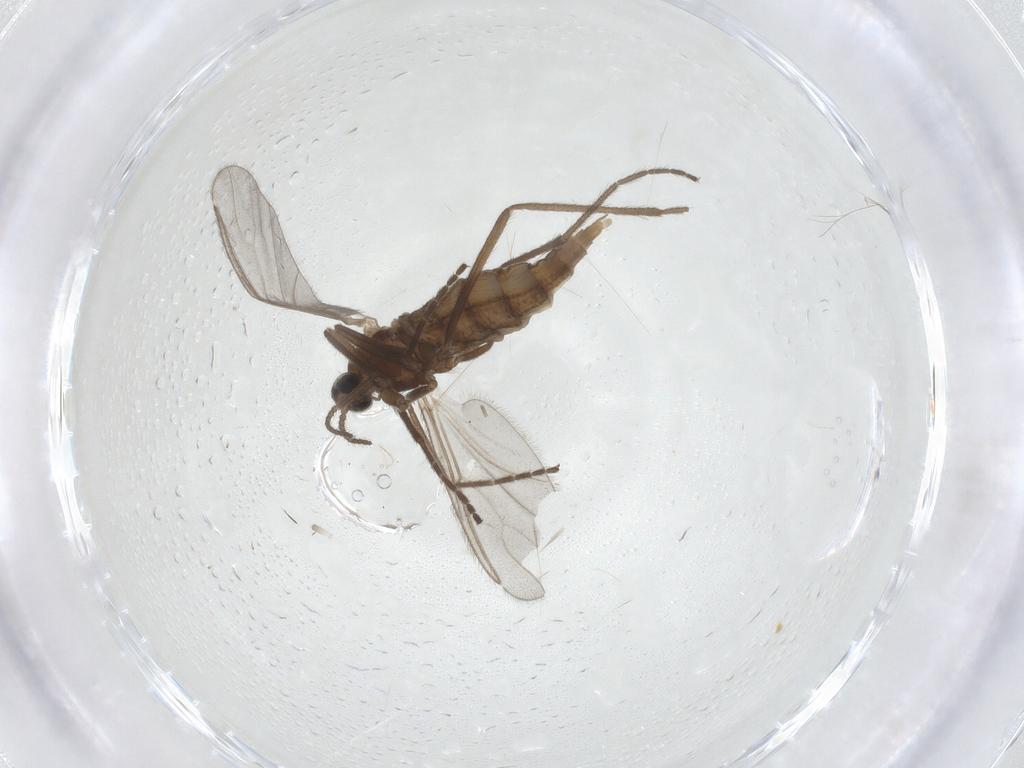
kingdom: Animalia
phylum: Arthropoda
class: Insecta
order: Diptera
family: Cecidomyiidae
